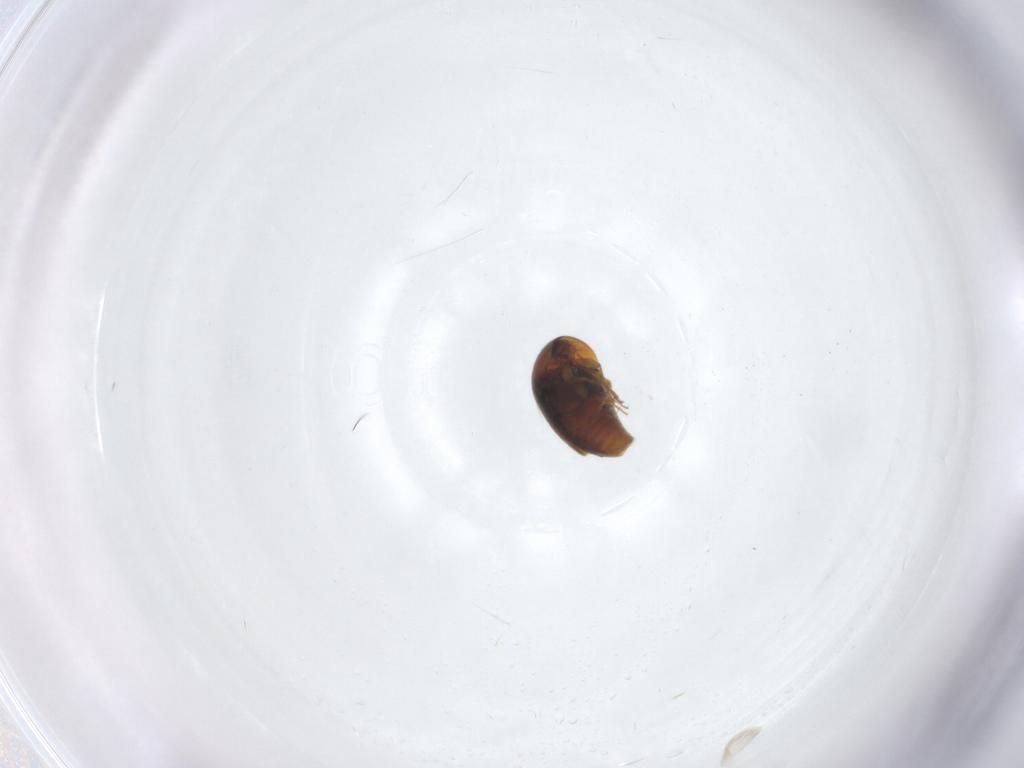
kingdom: Animalia
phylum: Arthropoda
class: Insecta
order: Coleoptera
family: Corylophidae
